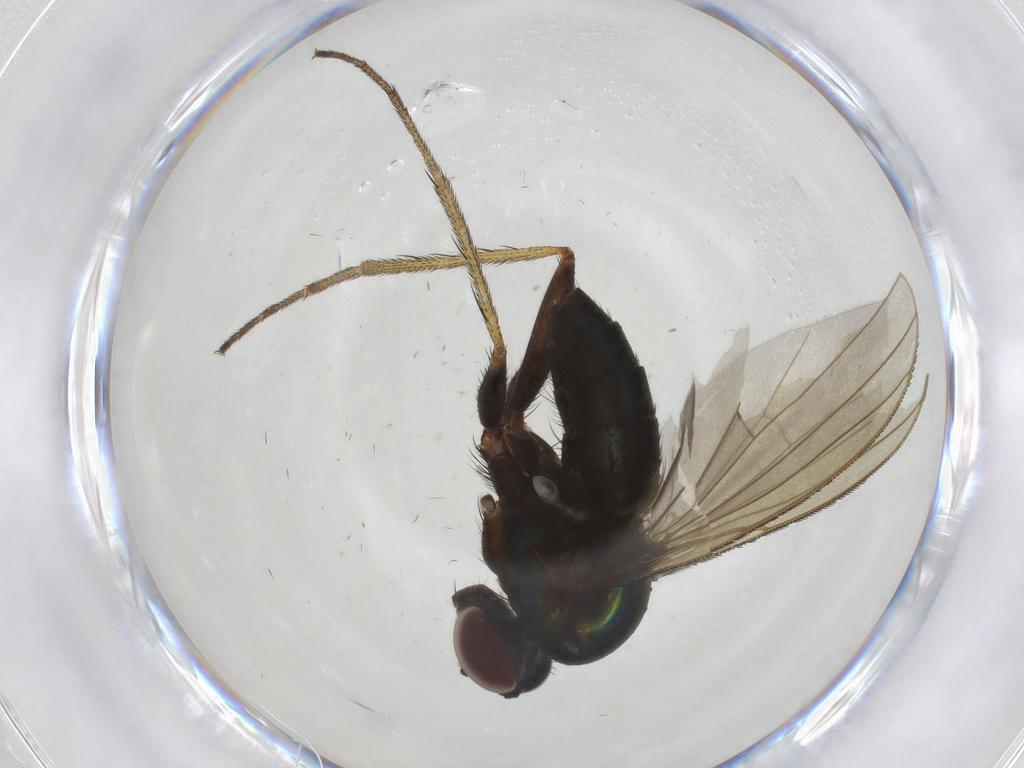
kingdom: Animalia
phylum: Arthropoda
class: Insecta
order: Diptera
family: Dolichopodidae
